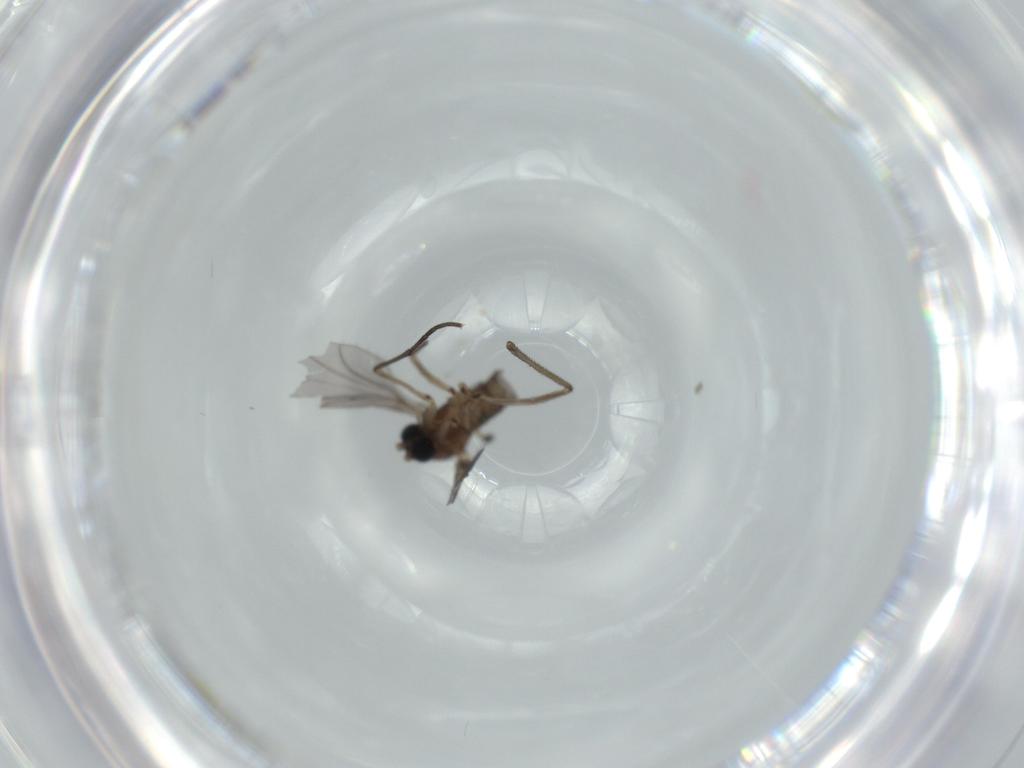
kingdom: Animalia
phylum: Arthropoda
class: Insecta
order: Diptera
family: Sciaridae
